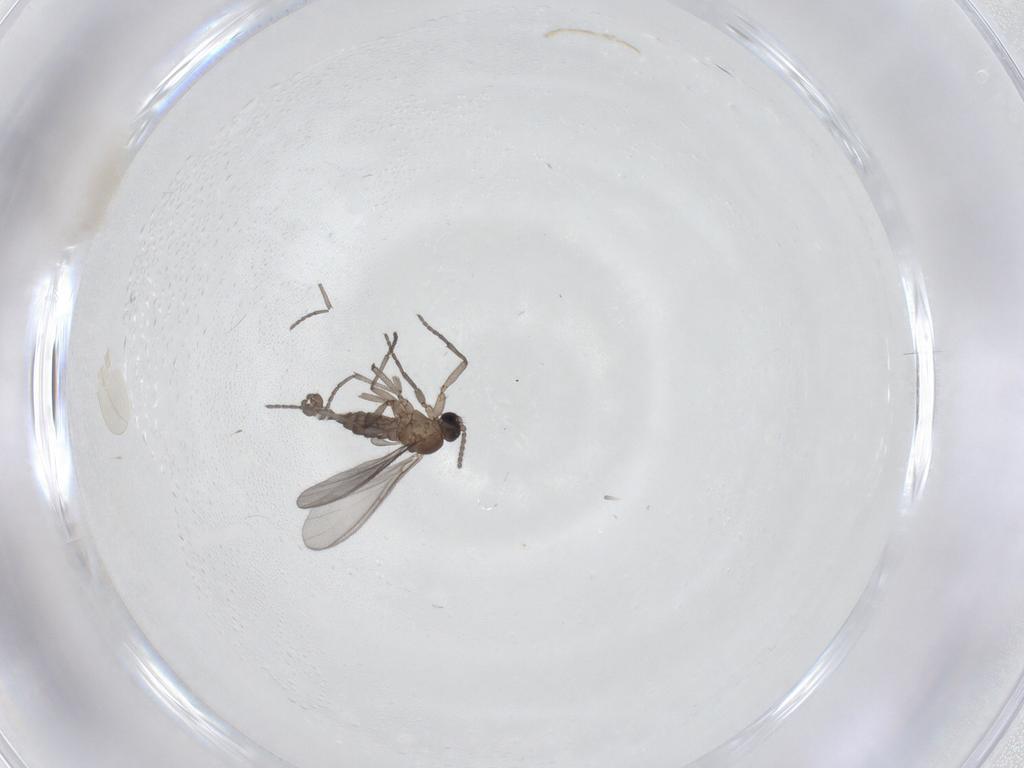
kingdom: Animalia
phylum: Arthropoda
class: Insecta
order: Diptera
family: Sciaridae
